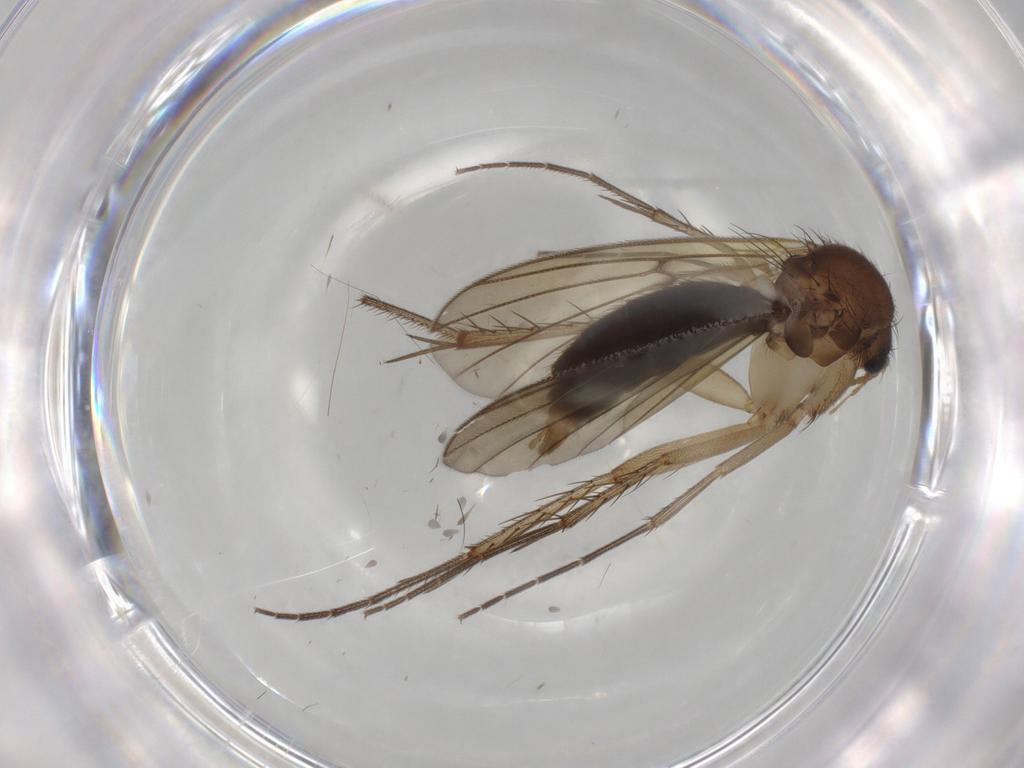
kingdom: Animalia
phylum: Arthropoda
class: Insecta
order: Diptera
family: Mycetophilidae
